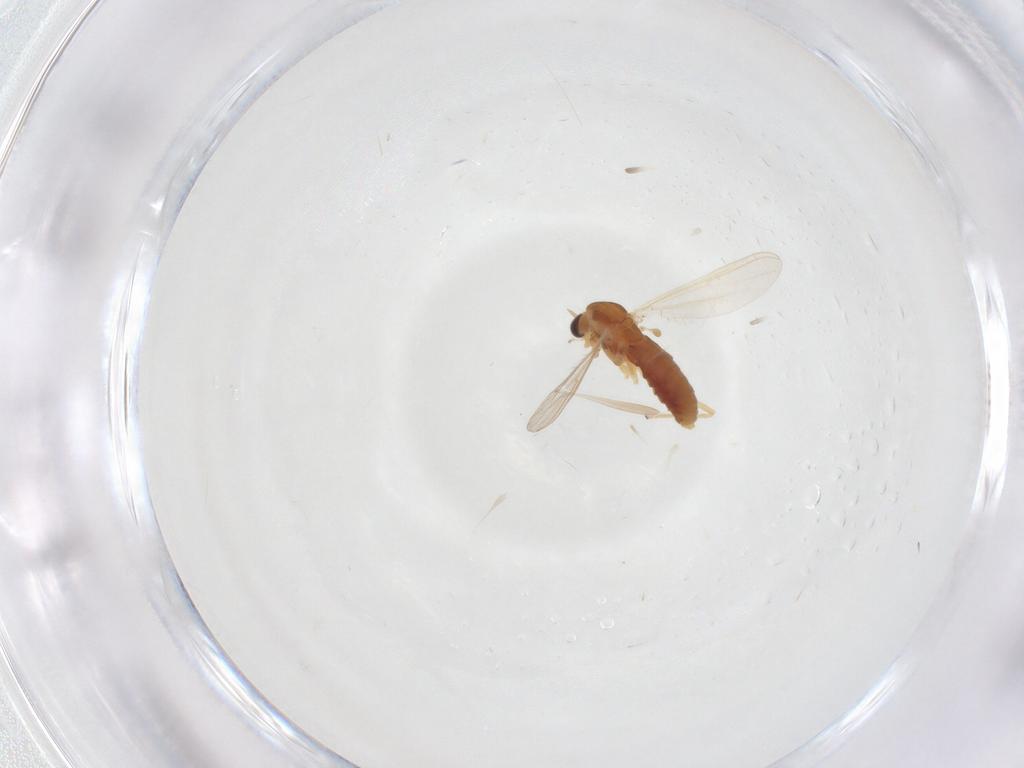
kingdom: Animalia
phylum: Arthropoda
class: Insecta
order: Diptera
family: Chironomidae
